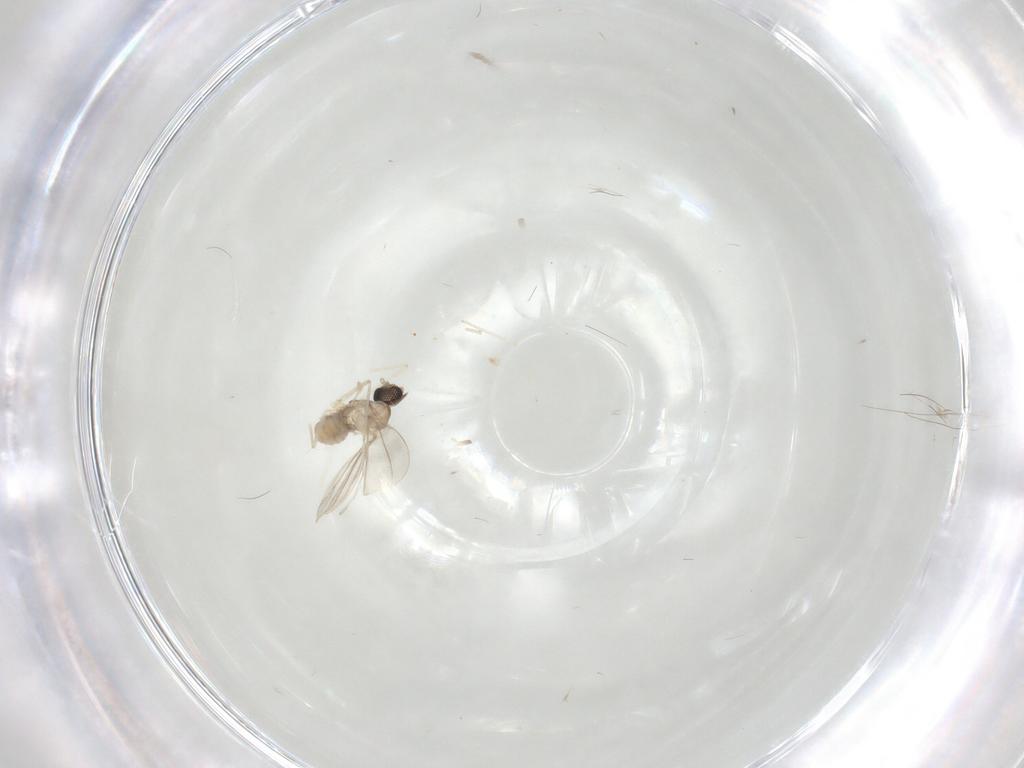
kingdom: Animalia
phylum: Arthropoda
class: Insecta
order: Diptera
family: Cecidomyiidae
